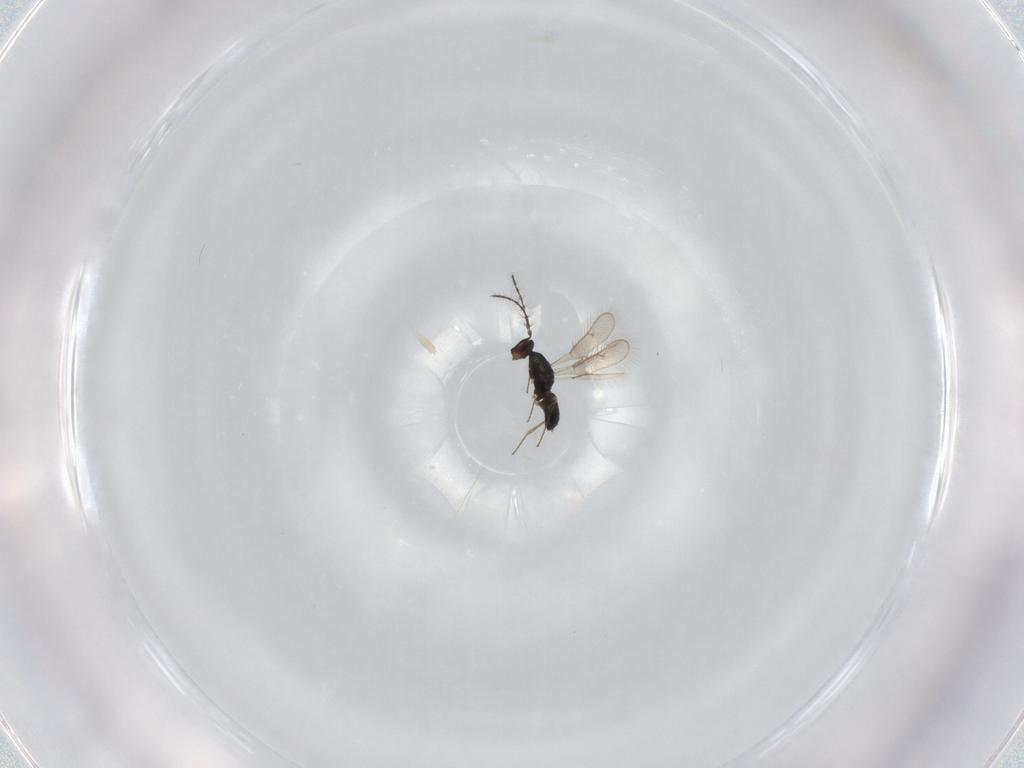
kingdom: Animalia
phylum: Arthropoda
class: Insecta
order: Hymenoptera
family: Pteromalidae
